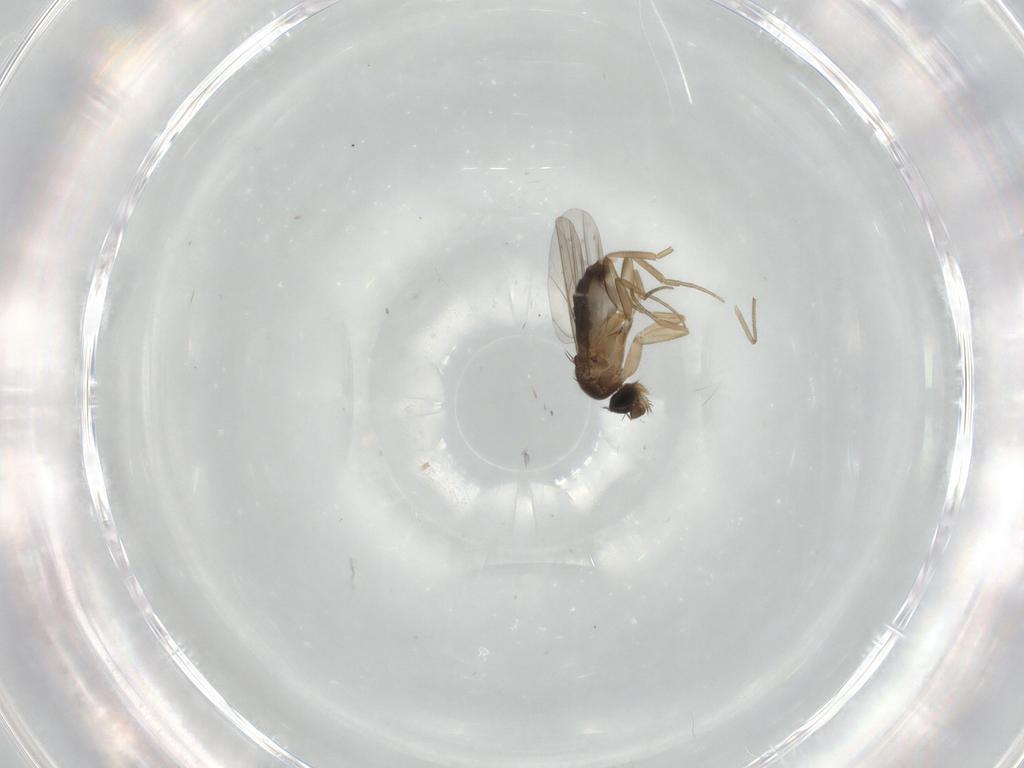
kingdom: Animalia
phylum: Arthropoda
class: Insecta
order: Diptera
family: Phoridae
